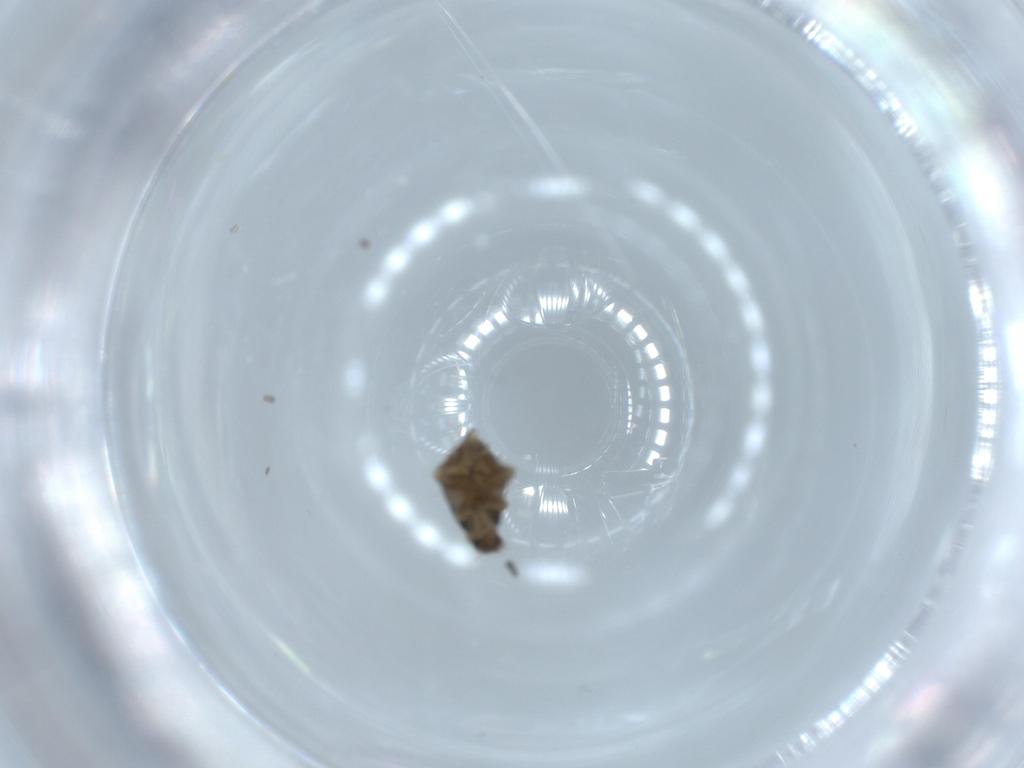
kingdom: Animalia
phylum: Arthropoda
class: Insecta
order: Diptera
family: Phoridae
